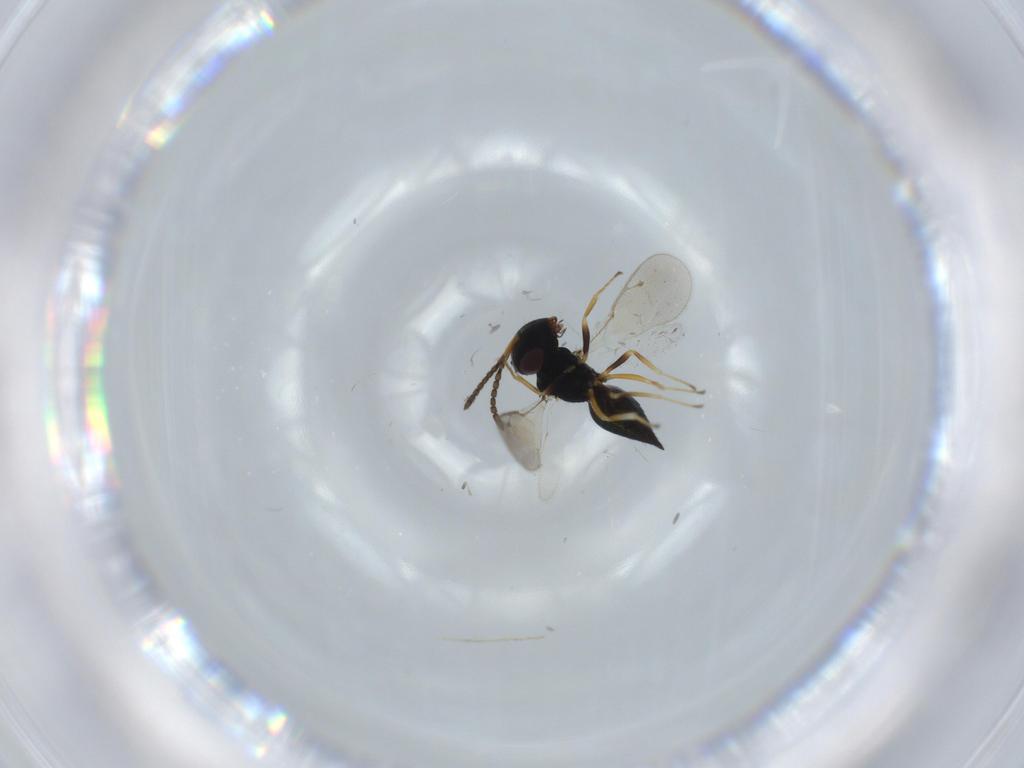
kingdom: Animalia
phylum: Arthropoda
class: Insecta
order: Hymenoptera
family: Pteromalidae
